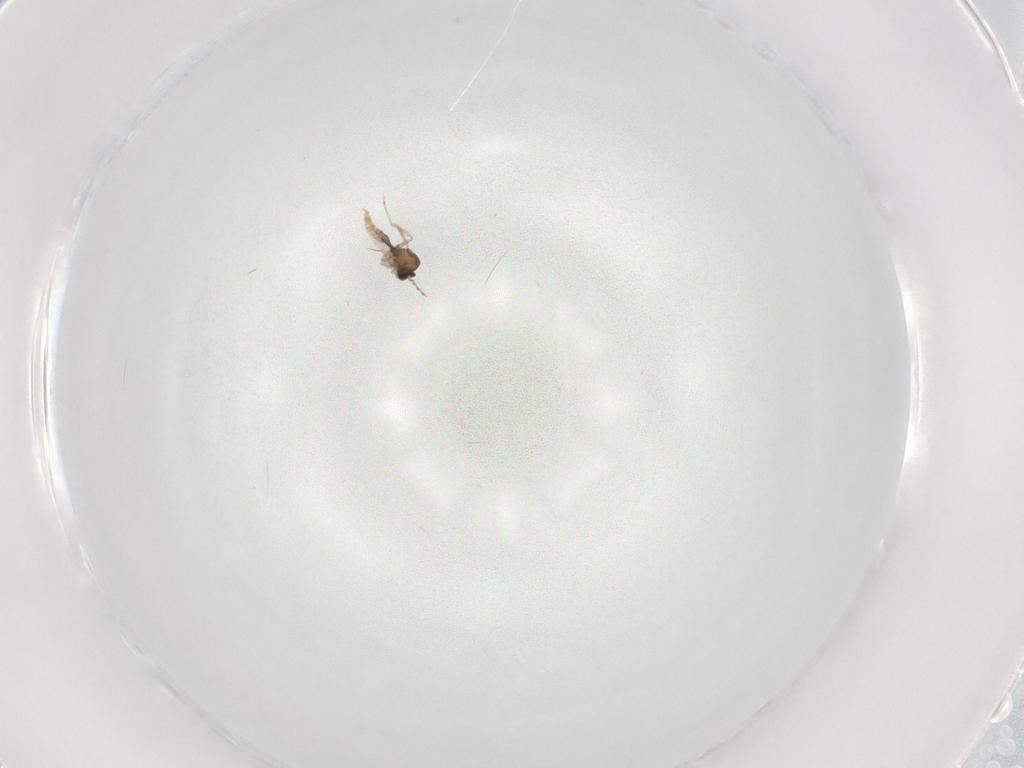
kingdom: Animalia
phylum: Arthropoda
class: Insecta
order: Diptera
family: Cecidomyiidae
